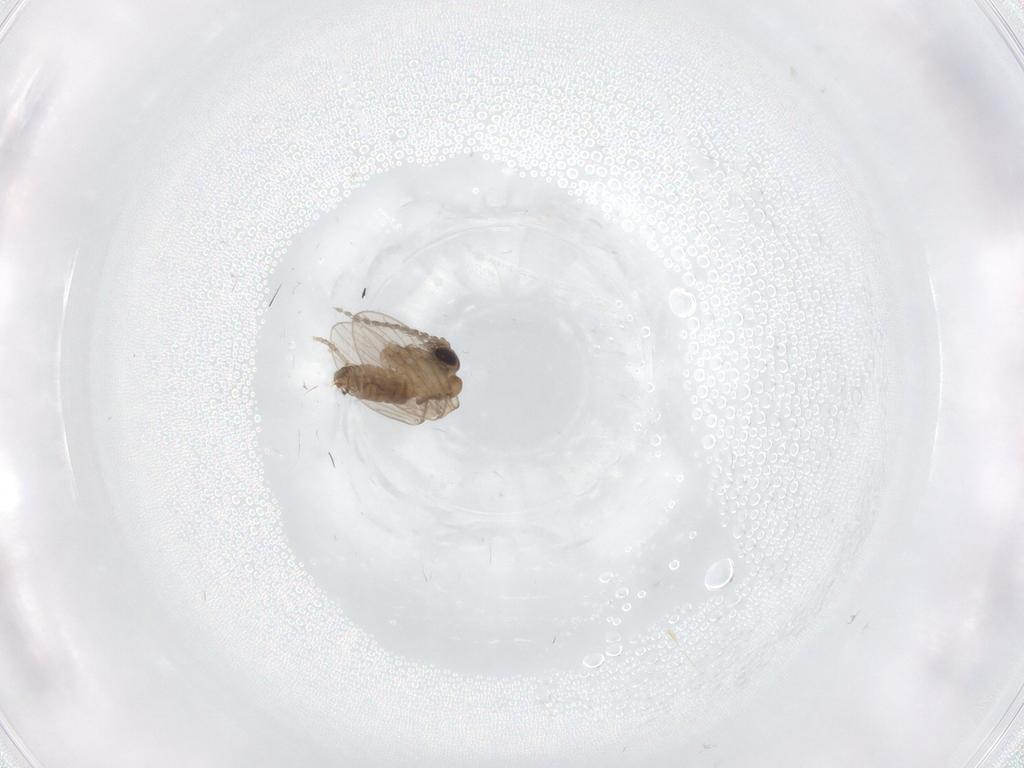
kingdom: Animalia
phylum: Arthropoda
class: Insecta
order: Diptera
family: Chironomidae
